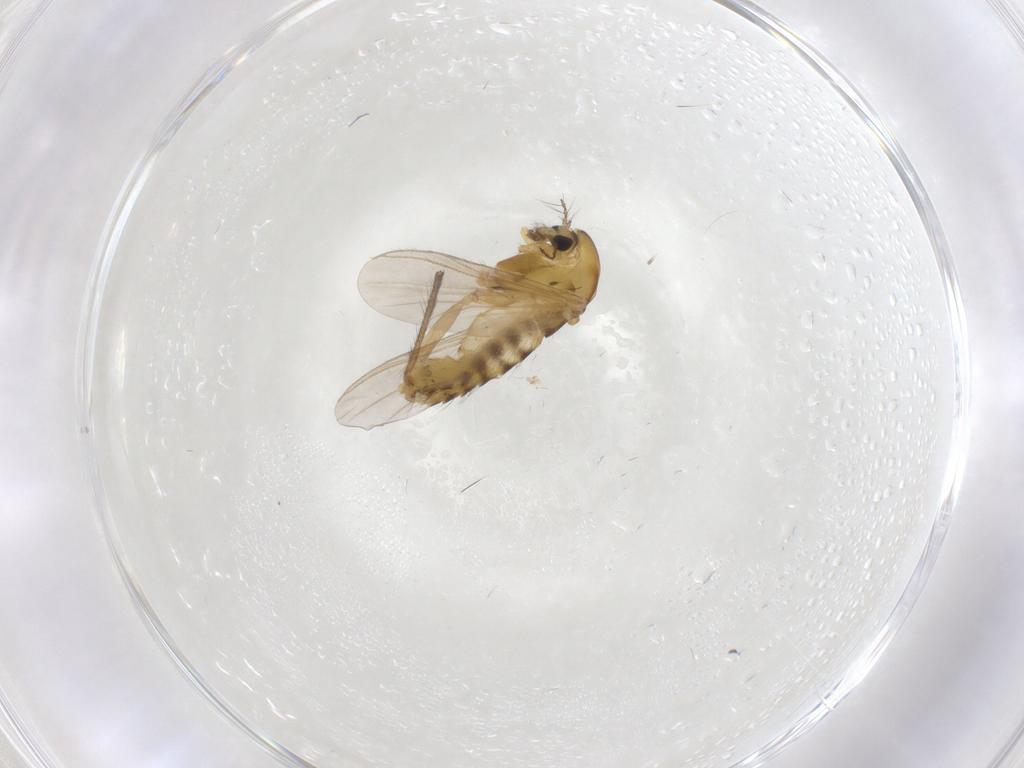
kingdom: Animalia
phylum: Arthropoda
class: Insecta
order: Diptera
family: Chironomidae
